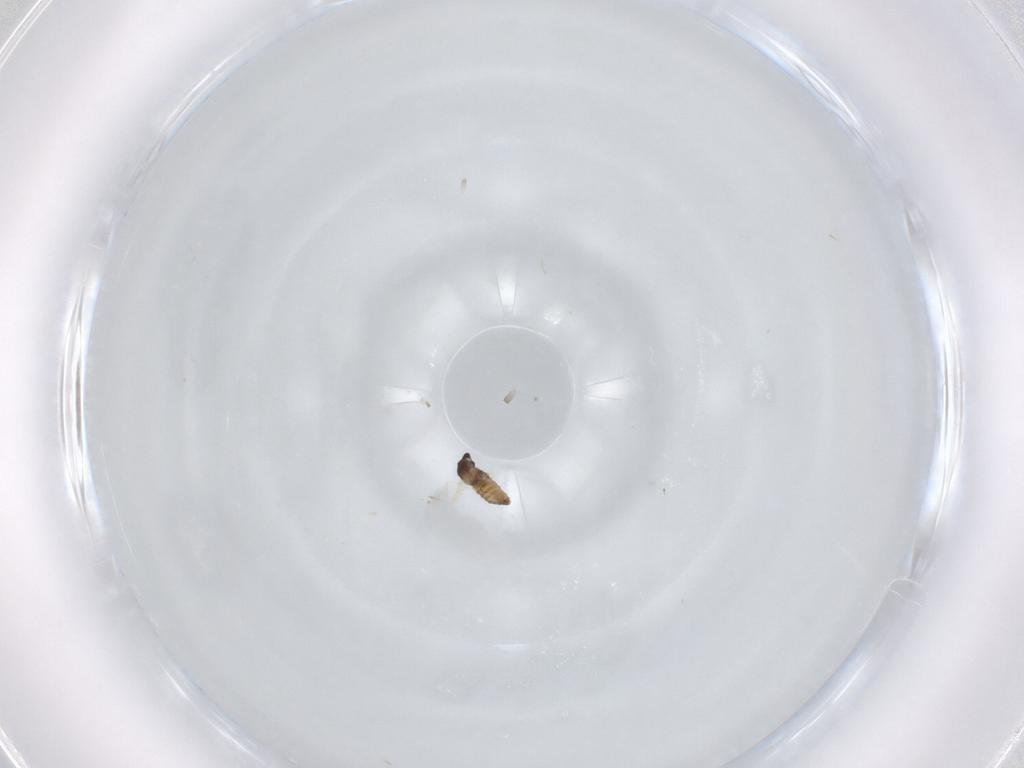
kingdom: Animalia
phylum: Arthropoda
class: Insecta
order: Diptera
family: Cecidomyiidae
